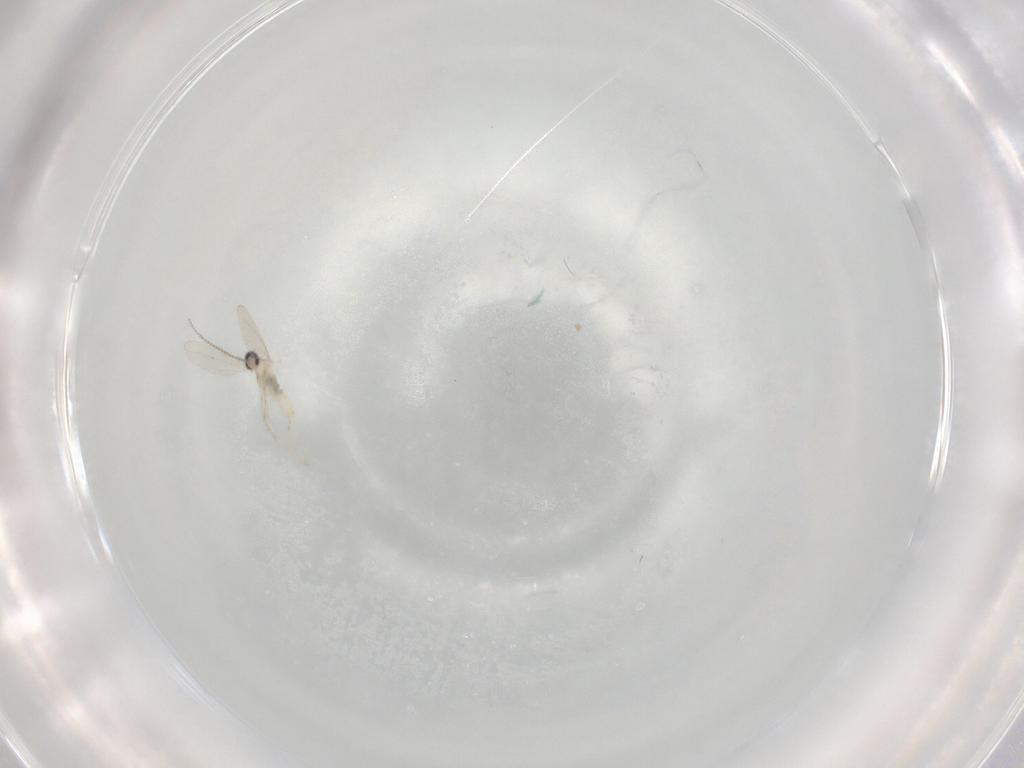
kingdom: Animalia
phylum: Arthropoda
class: Insecta
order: Diptera
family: Cecidomyiidae
